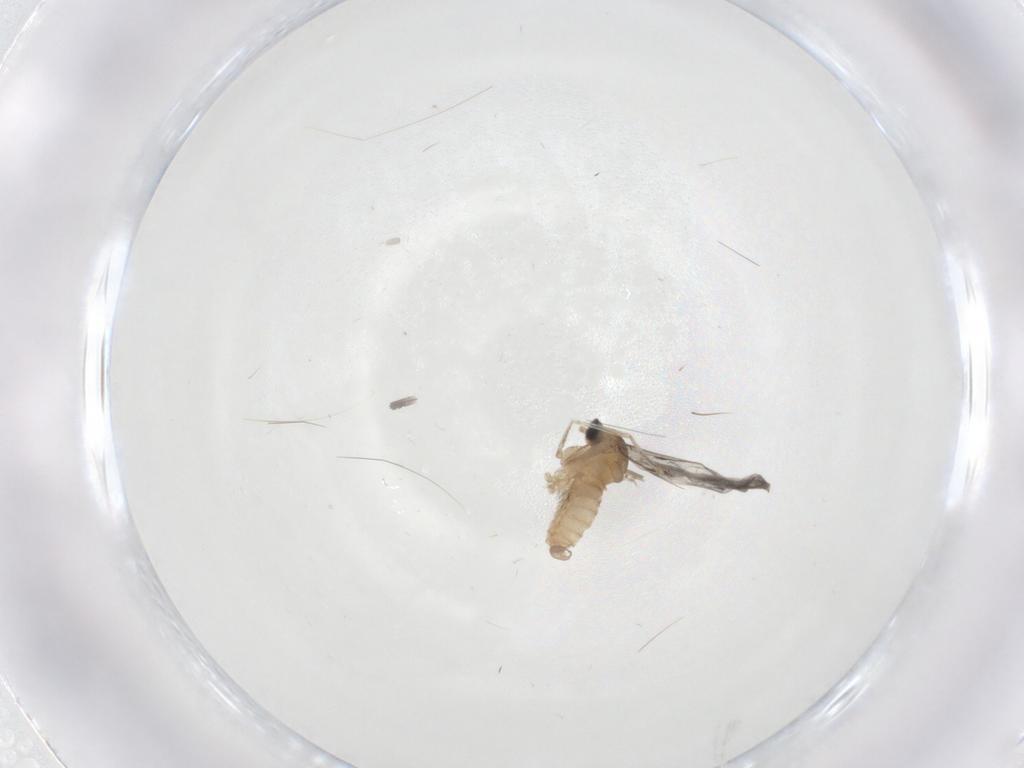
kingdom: Animalia
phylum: Arthropoda
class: Insecta
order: Diptera
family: Cecidomyiidae
